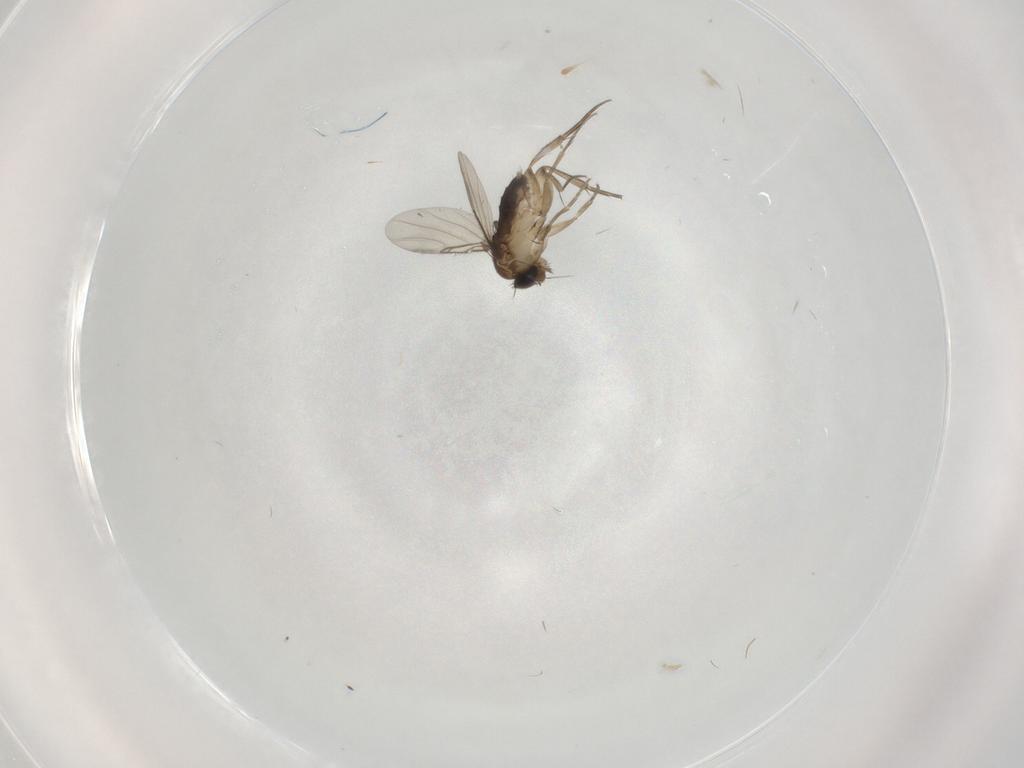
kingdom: Animalia
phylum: Arthropoda
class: Insecta
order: Diptera
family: Phoridae
